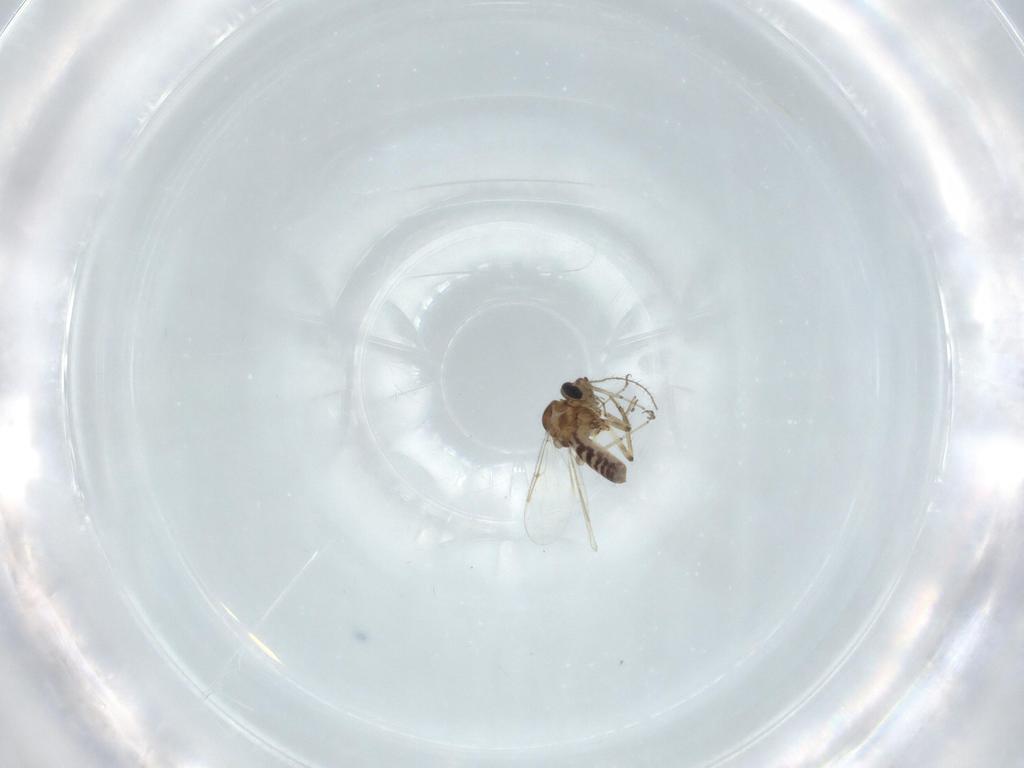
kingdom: Animalia
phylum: Arthropoda
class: Insecta
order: Diptera
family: Ceratopogonidae
